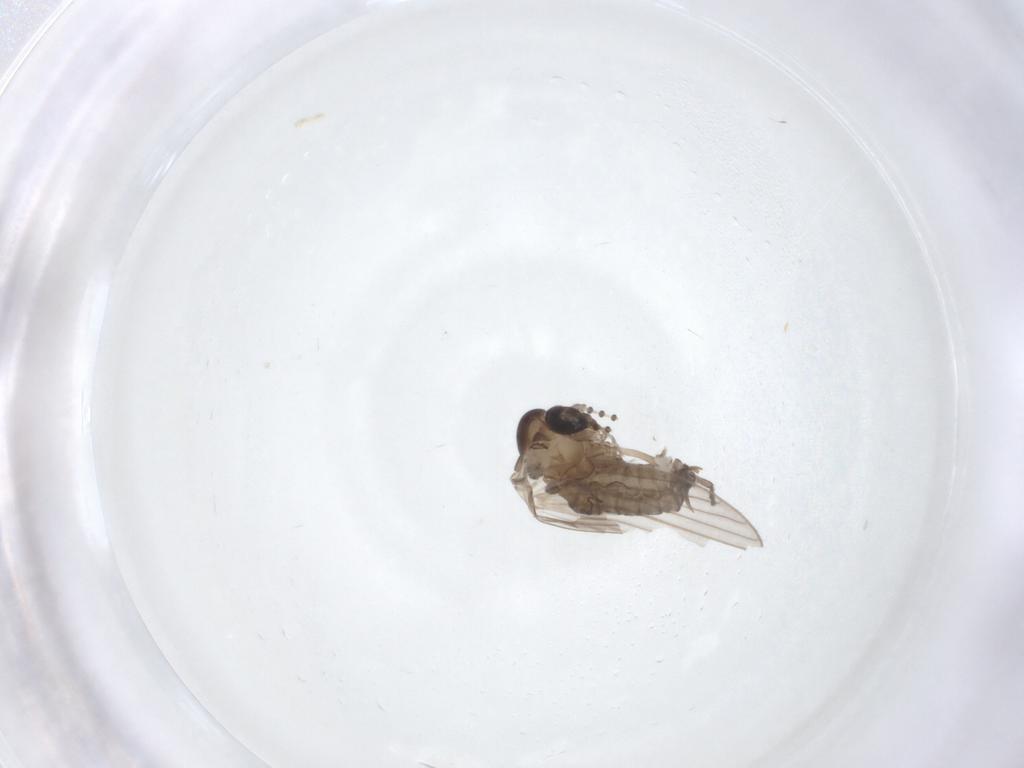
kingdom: Animalia
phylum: Arthropoda
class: Insecta
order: Diptera
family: Psychodidae
